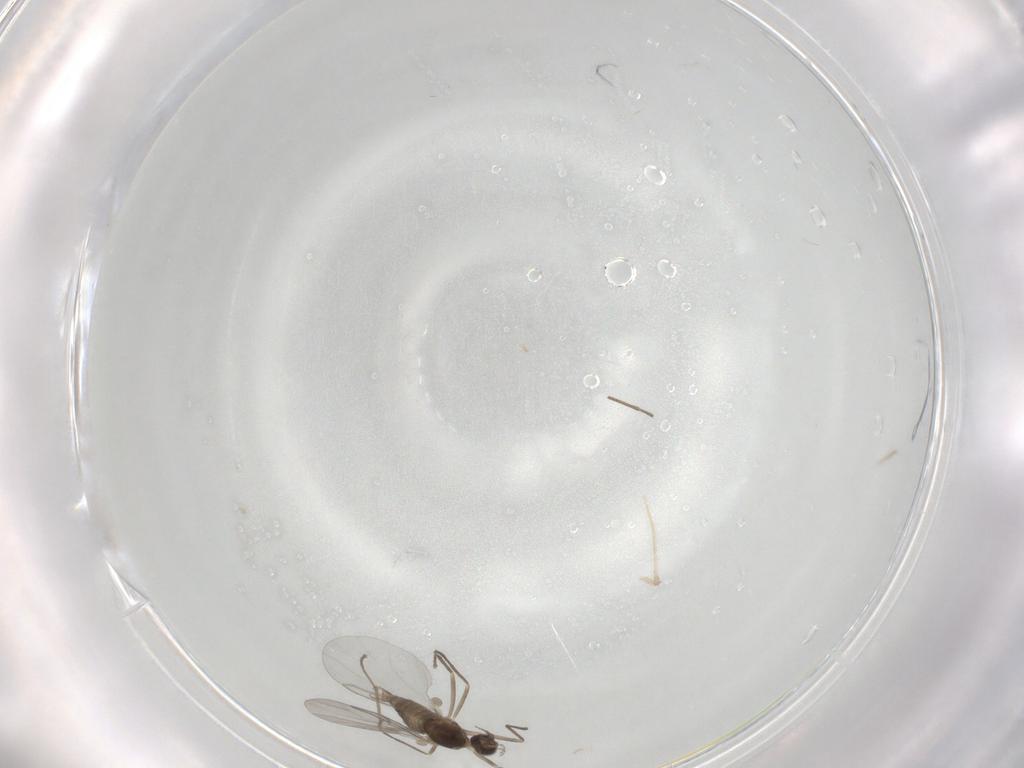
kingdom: Animalia
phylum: Arthropoda
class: Insecta
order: Diptera
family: Cecidomyiidae
